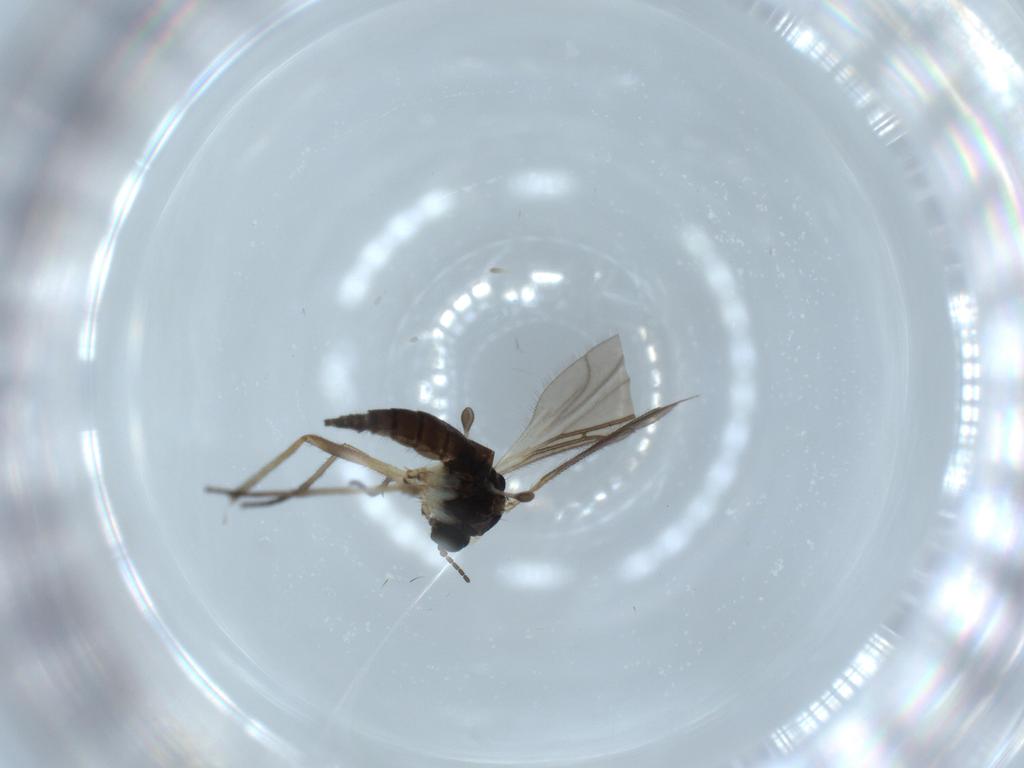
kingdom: Animalia
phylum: Arthropoda
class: Insecta
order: Diptera
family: Sciaridae
